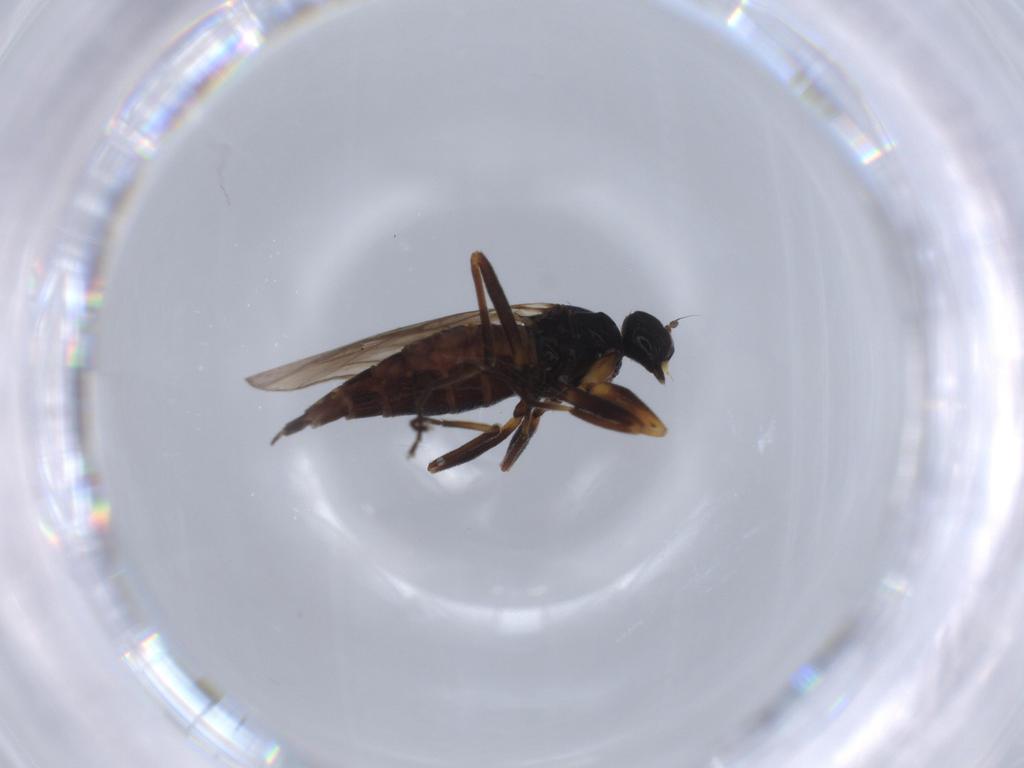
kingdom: Animalia
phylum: Arthropoda
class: Insecta
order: Diptera
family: Hybotidae
